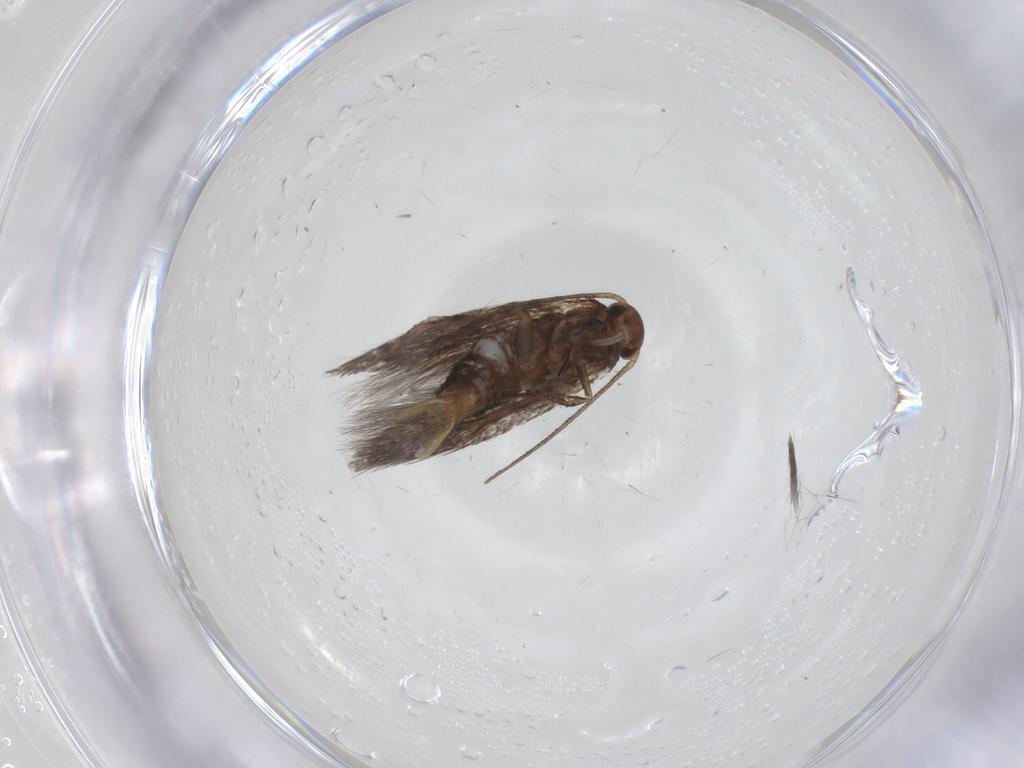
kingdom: Animalia
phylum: Arthropoda
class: Insecta
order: Lepidoptera
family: Elachistidae
